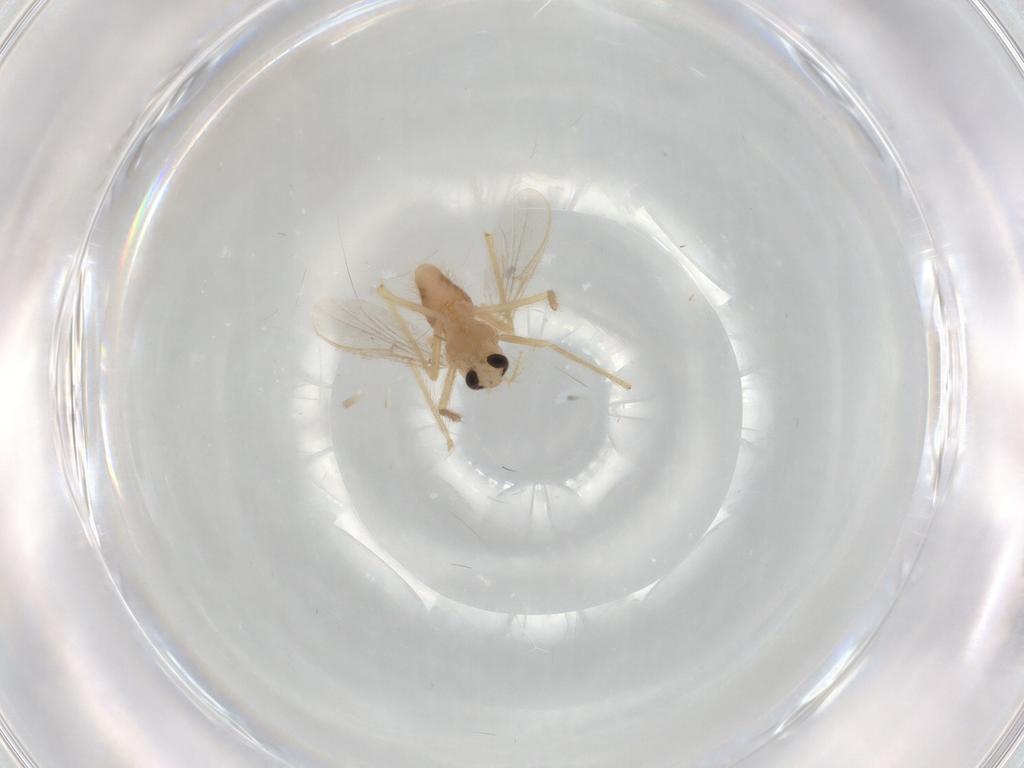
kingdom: Animalia
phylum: Arthropoda
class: Insecta
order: Diptera
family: Chironomidae
